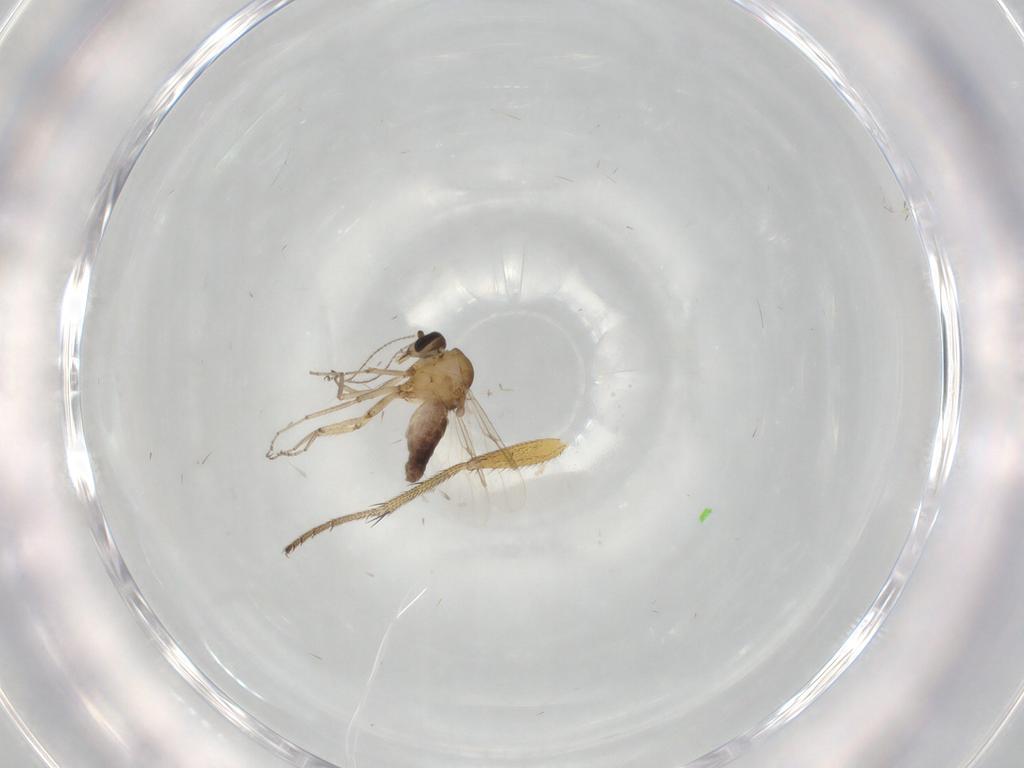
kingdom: Animalia
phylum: Arthropoda
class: Insecta
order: Diptera
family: Ceratopogonidae
